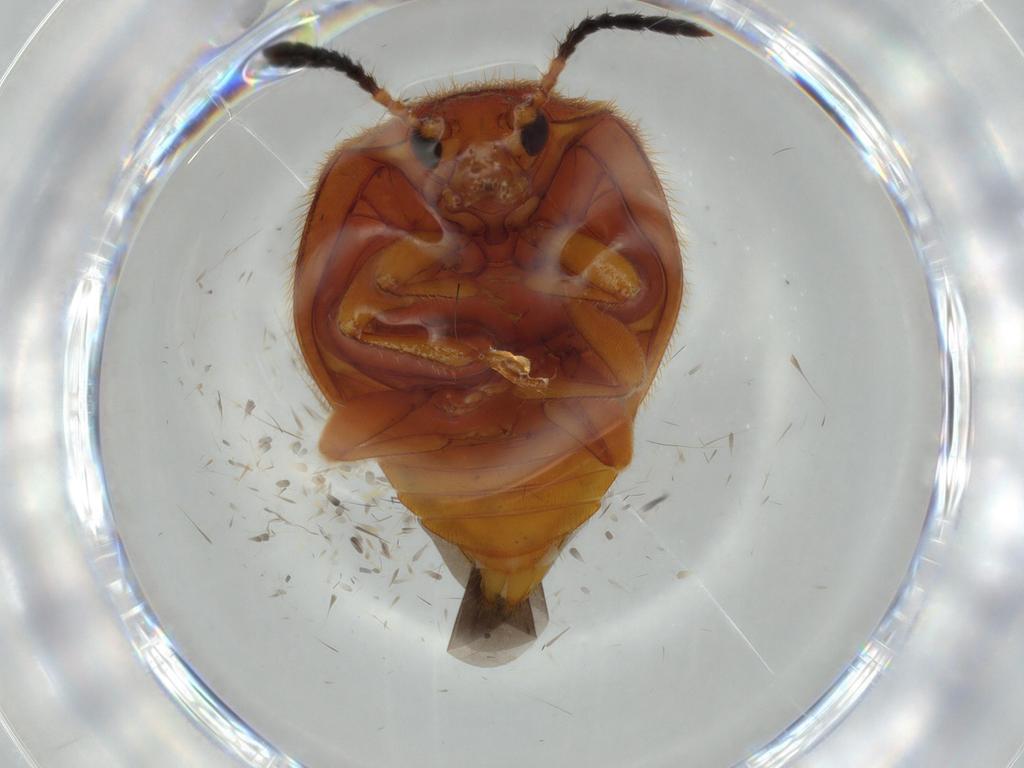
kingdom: Animalia
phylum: Arthropoda
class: Insecta
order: Coleoptera
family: Endomychidae
